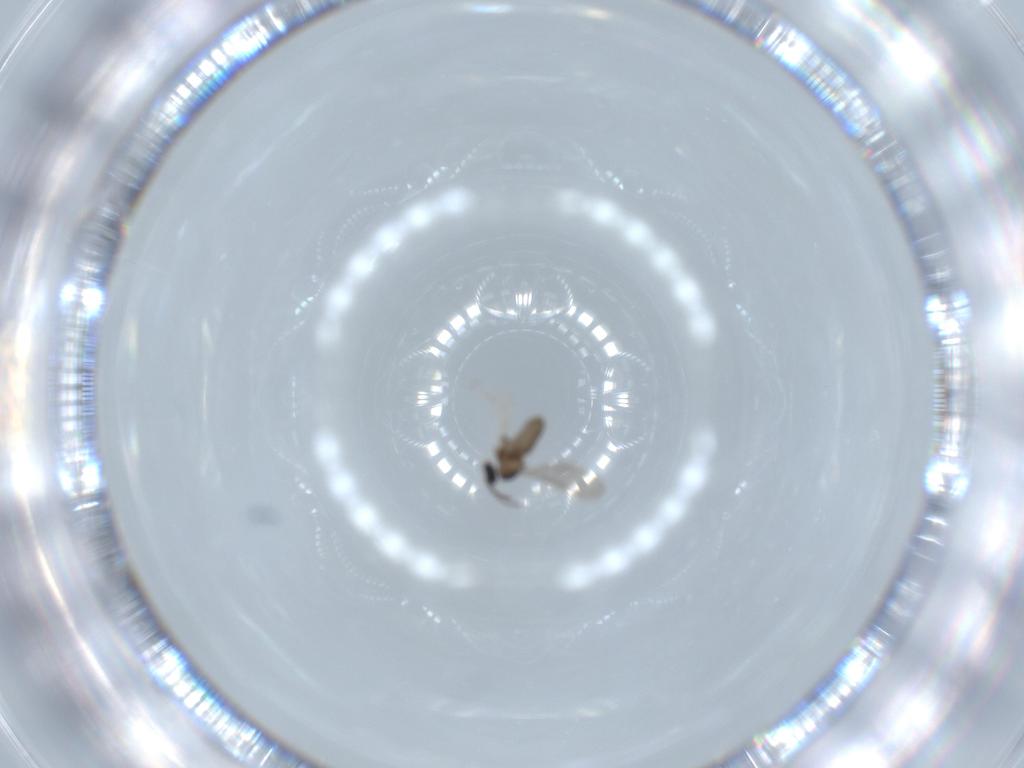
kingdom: Animalia
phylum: Arthropoda
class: Insecta
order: Diptera
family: Cecidomyiidae
